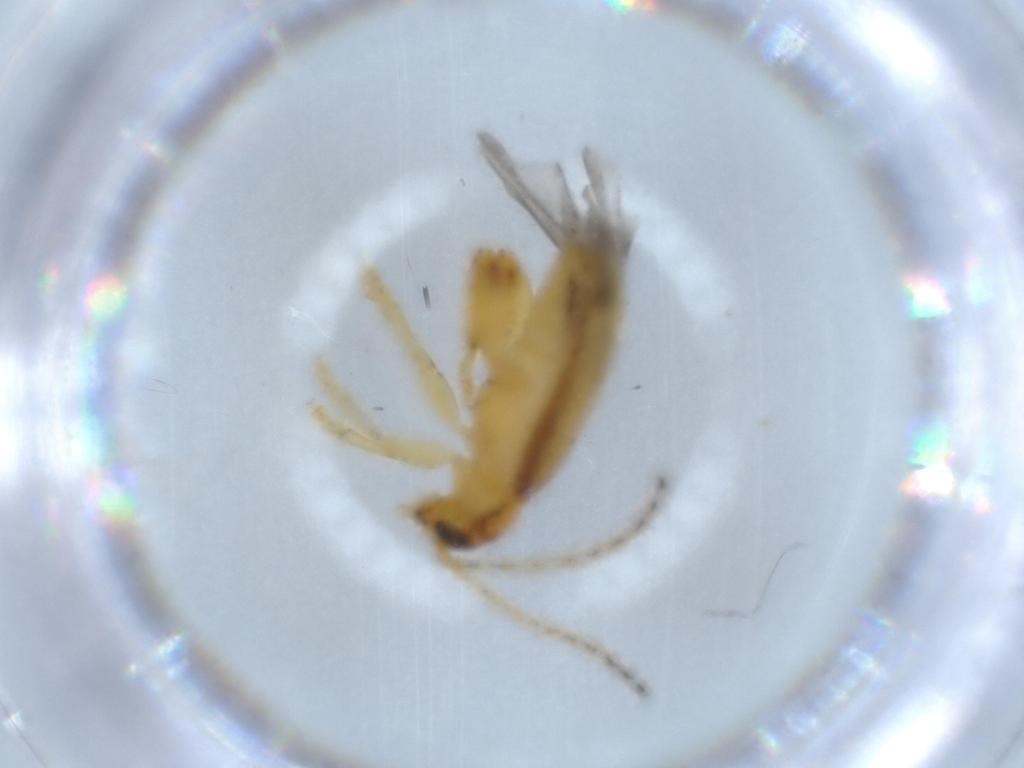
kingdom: Animalia
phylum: Arthropoda
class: Insecta
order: Coleoptera
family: Chrysomelidae
